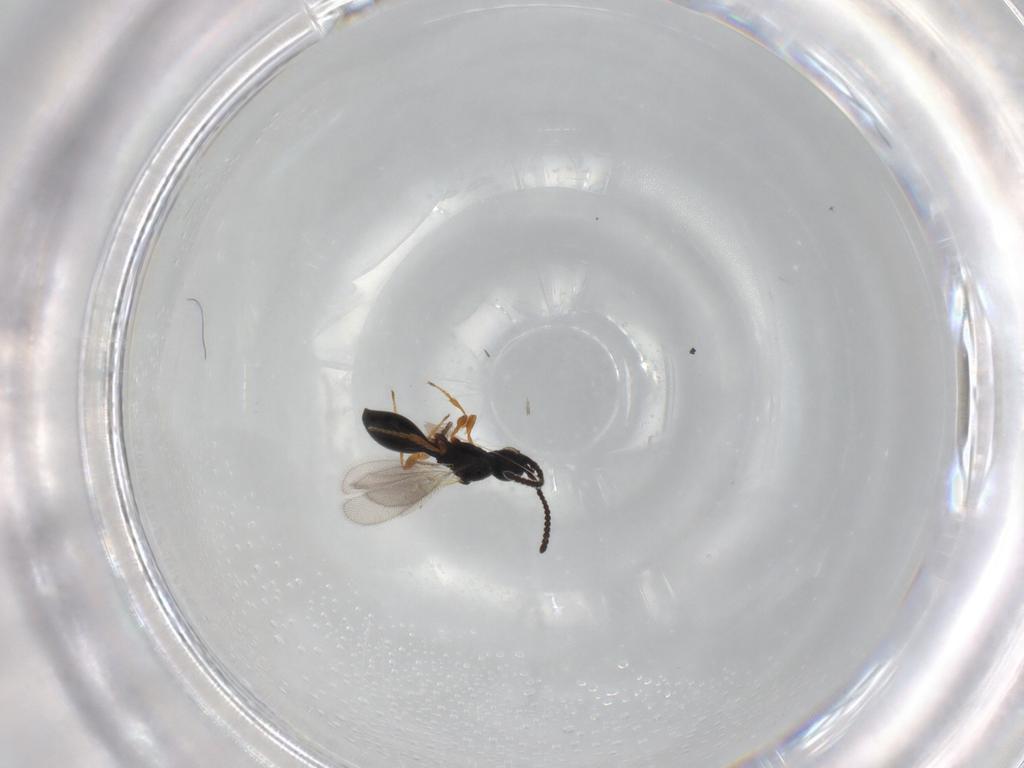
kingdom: Animalia
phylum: Arthropoda
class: Insecta
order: Hymenoptera
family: Diapriidae
